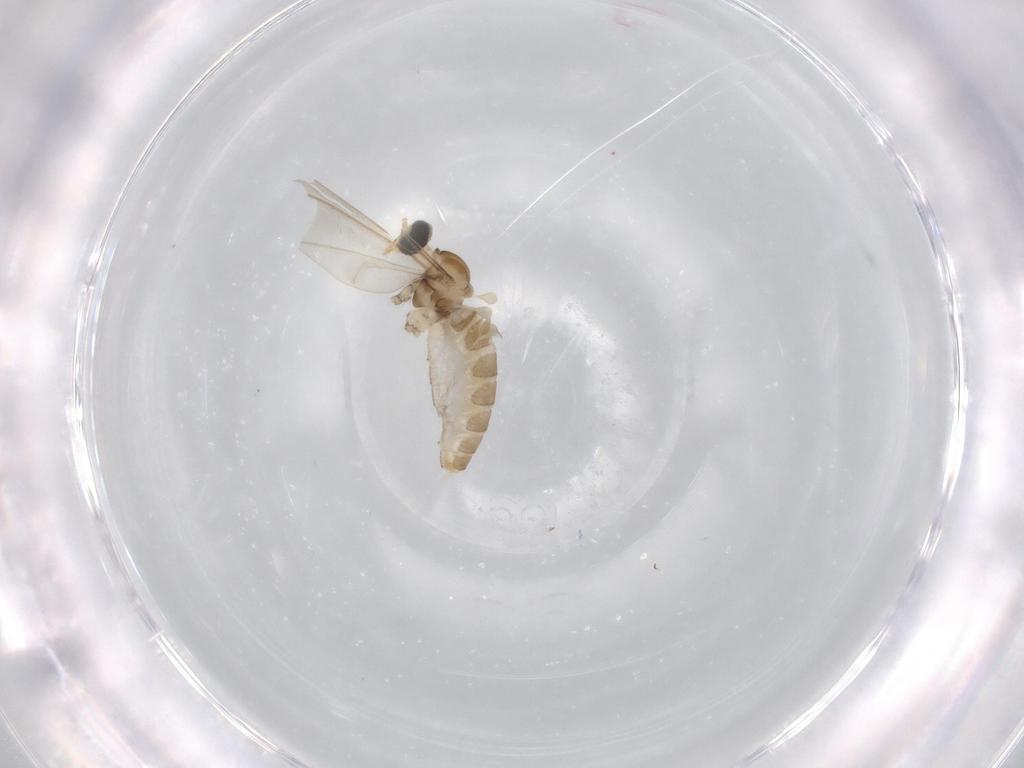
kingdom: Animalia
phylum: Arthropoda
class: Insecta
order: Diptera
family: Cecidomyiidae
